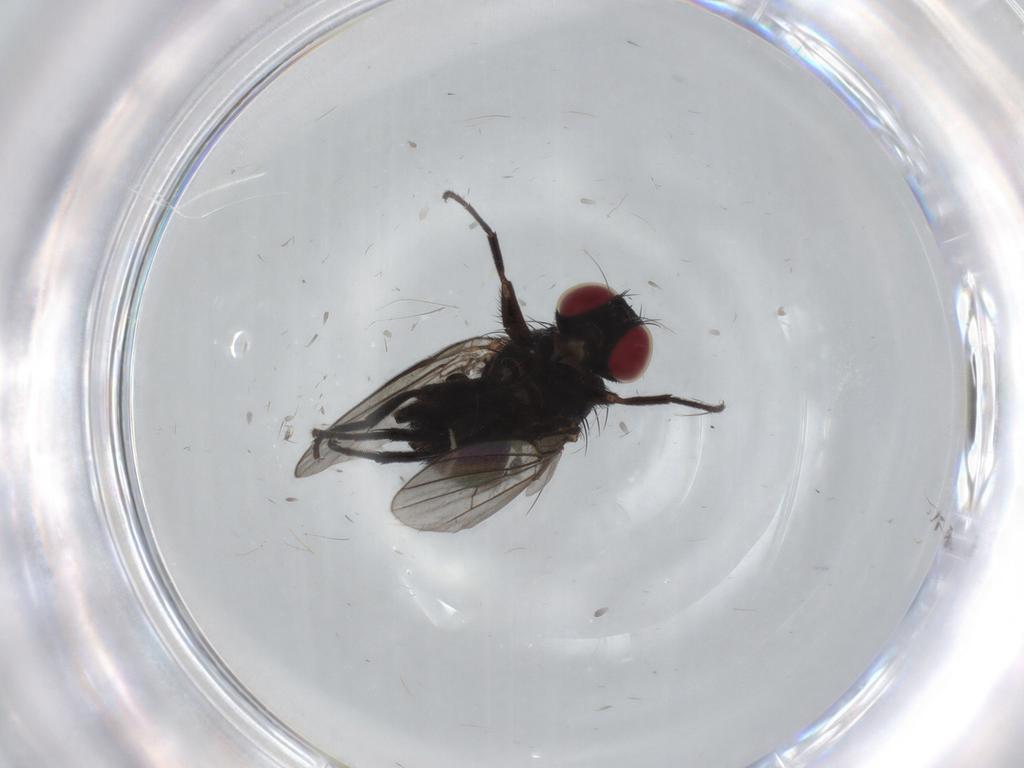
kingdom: Animalia
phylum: Arthropoda
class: Insecta
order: Diptera
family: Agromyzidae
